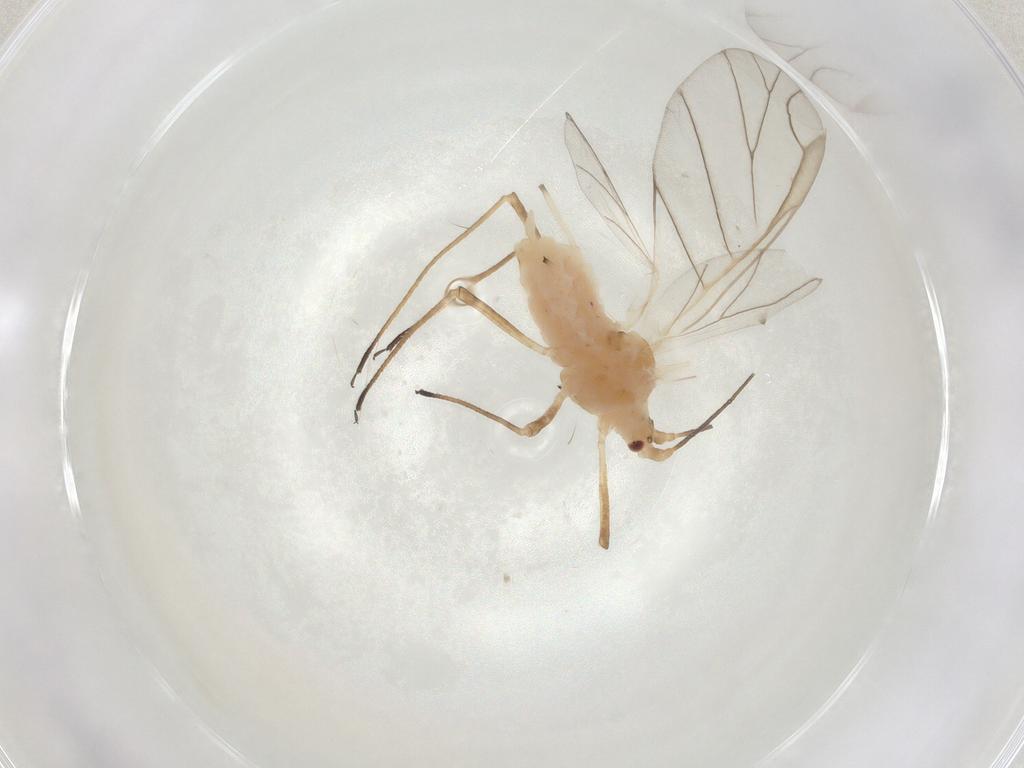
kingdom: Animalia
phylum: Arthropoda
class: Insecta
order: Hemiptera
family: Aphididae
